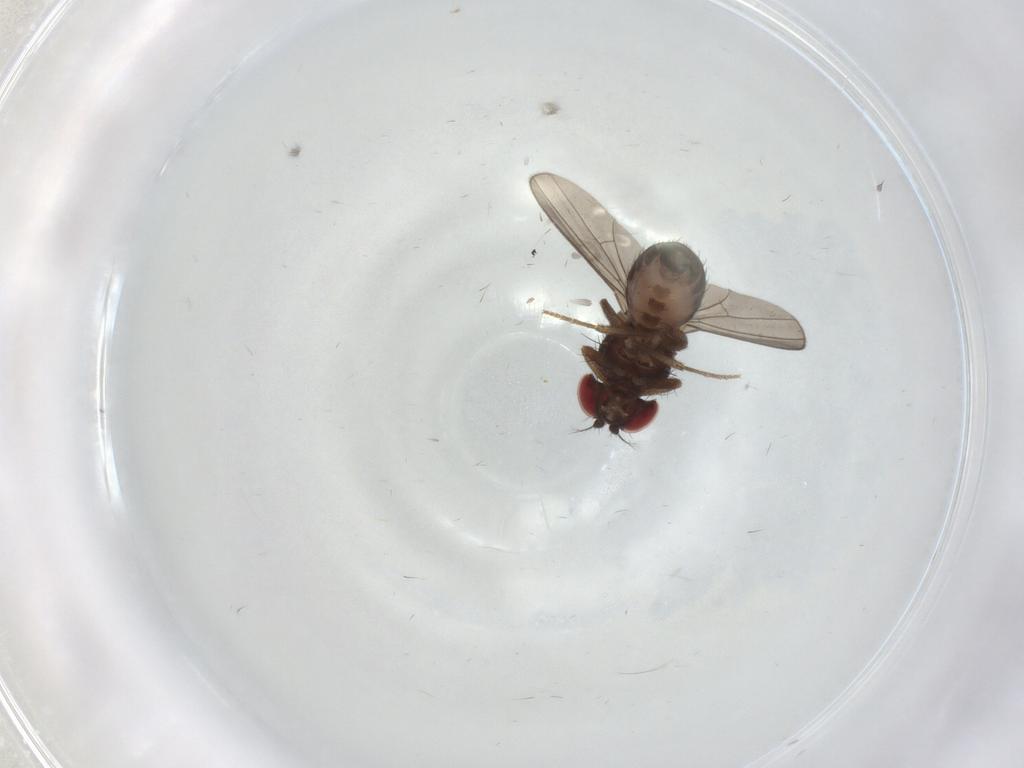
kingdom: Animalia
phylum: Arthropoda
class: Insecta
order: Diptera
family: Drosophilidae
